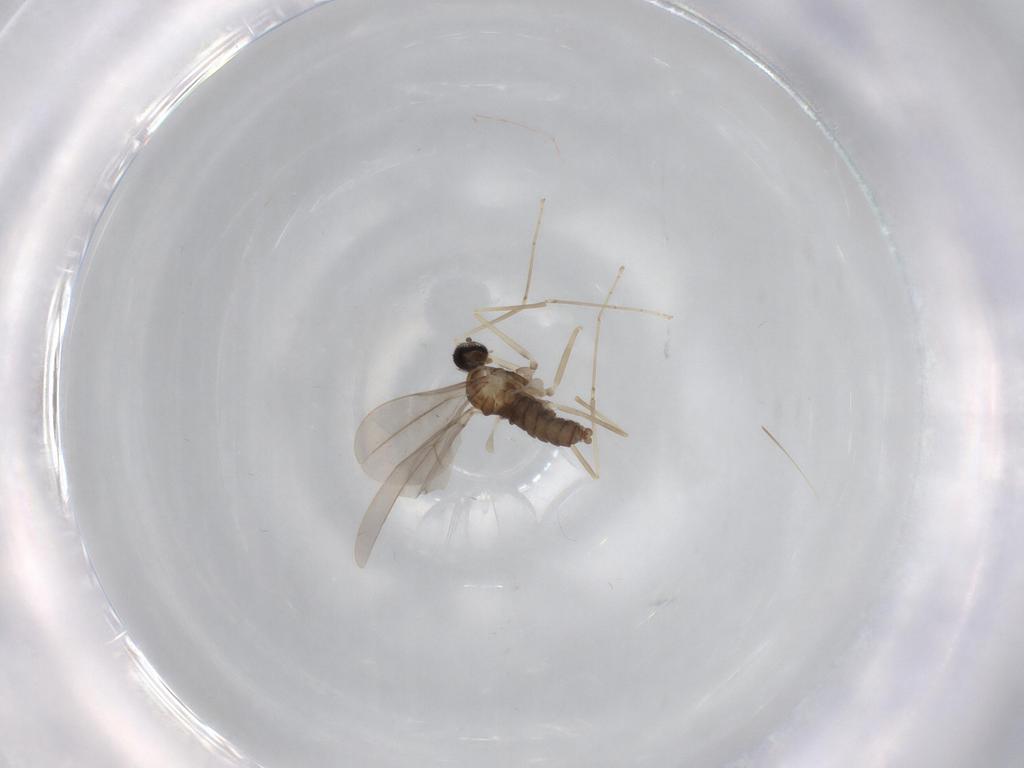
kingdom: Animalia
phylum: Arthropoda
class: Insecta
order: Diptera
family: Cecidomyiidae
